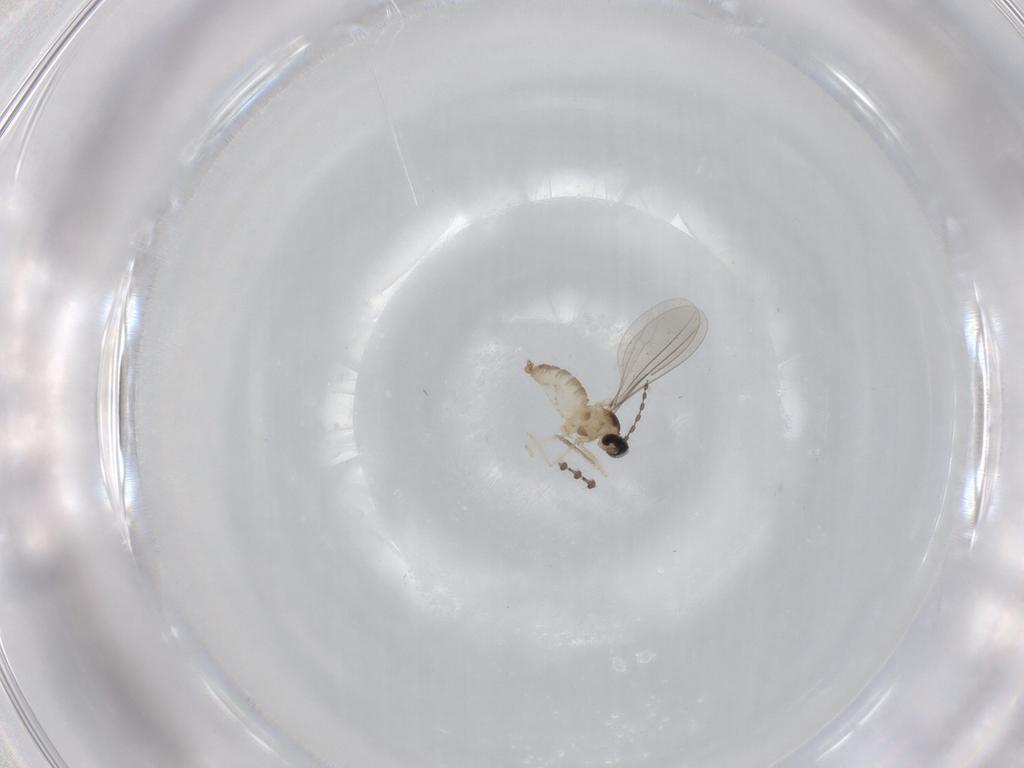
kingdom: Animalia
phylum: Arthropoda
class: Insecta
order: Diptera
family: Cecidomyiidae
